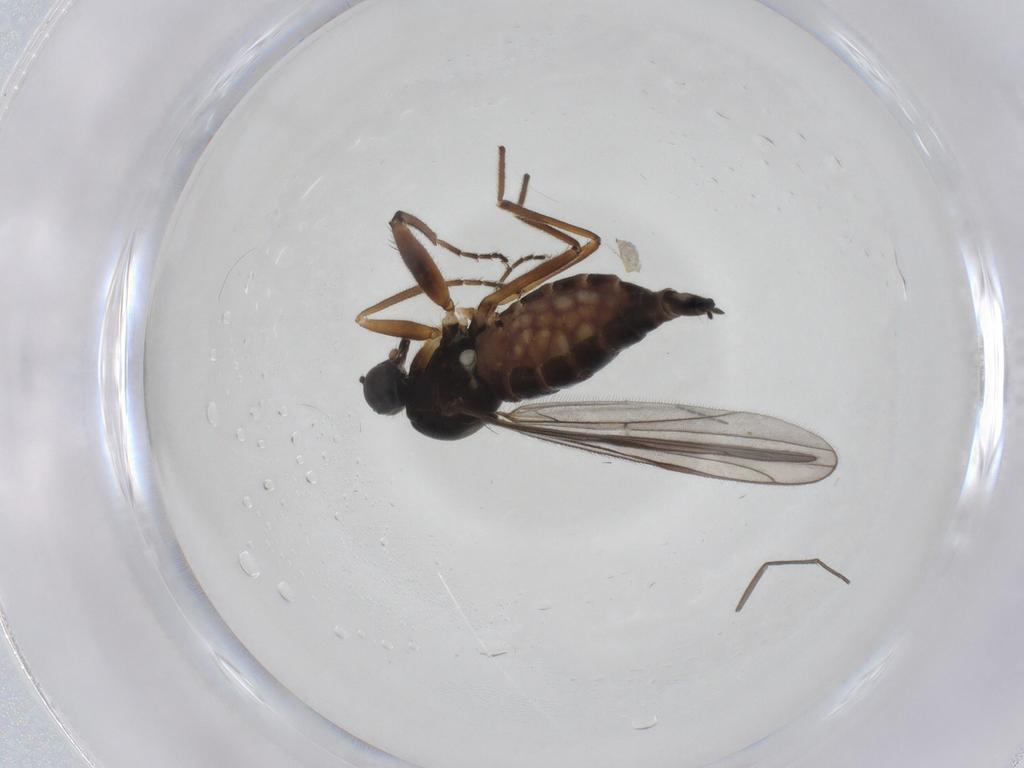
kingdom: Animalia
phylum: Arthropoda
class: Insecta
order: Diptera
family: Hybotidae
